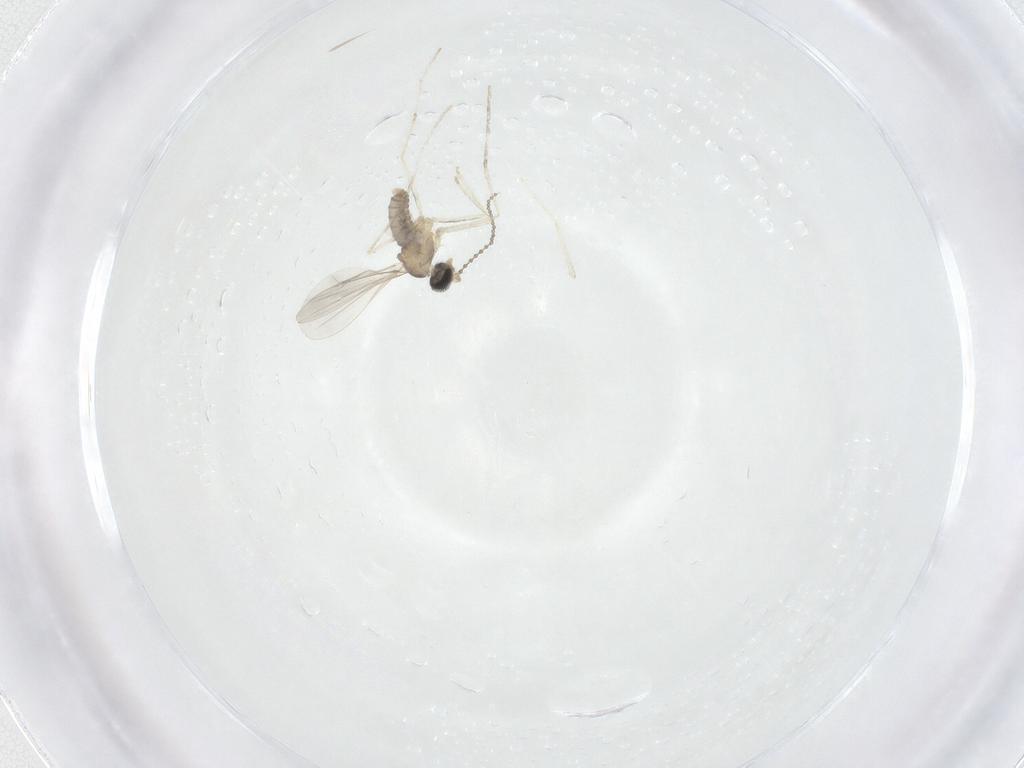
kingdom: Animalia
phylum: Arthropoda
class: Insecta
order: Diptera
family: Cecidomyiidae
